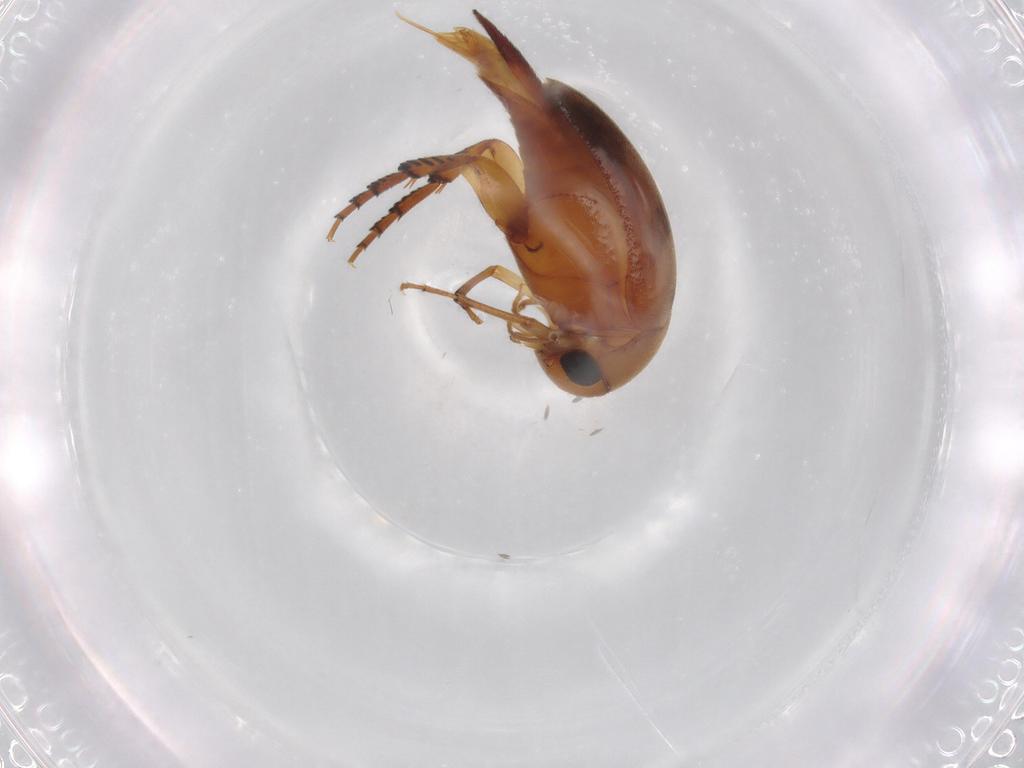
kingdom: Animalia
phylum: Arthropoda
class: Insecta
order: Coleoptera
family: Mordellidae
